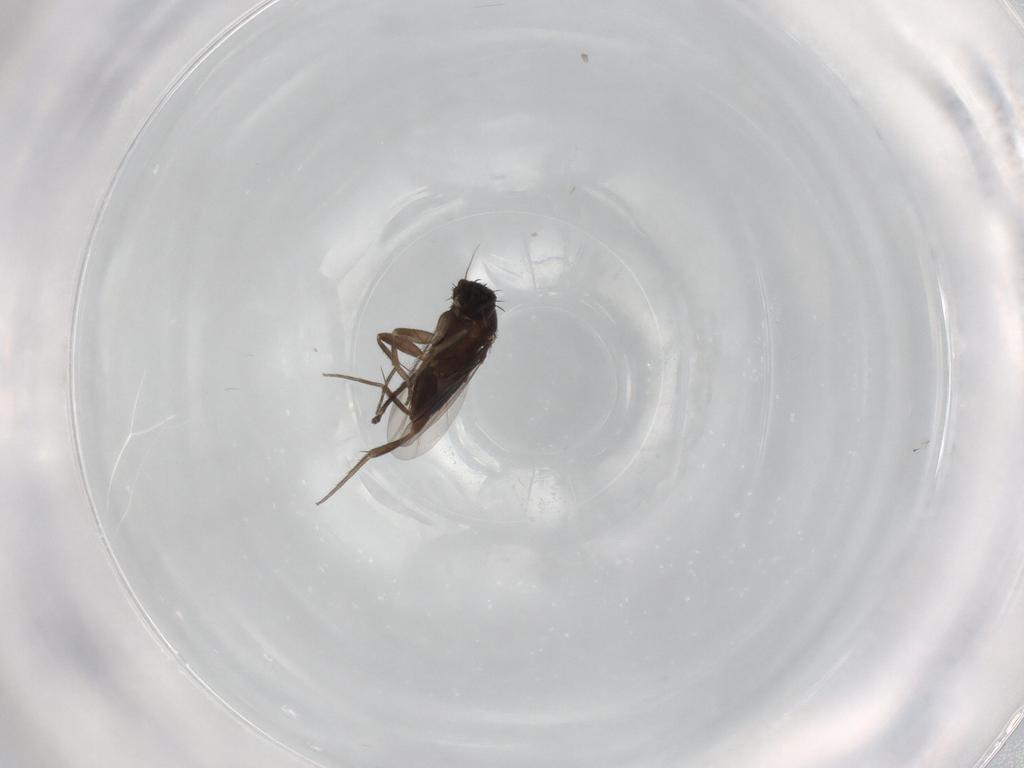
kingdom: Animalia
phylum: Arthropoda
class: Insecta
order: Diptera
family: Phoridae
